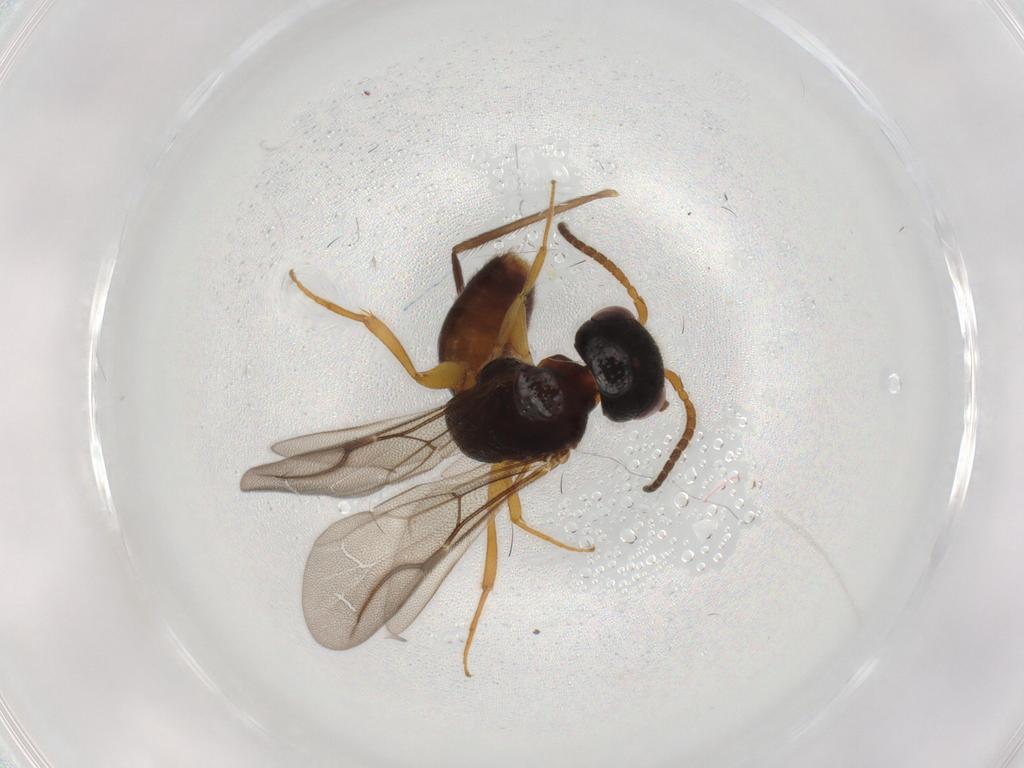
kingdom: Animalia
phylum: Arthropoda
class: Insecta
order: Hymenoptera
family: Bethylidae
